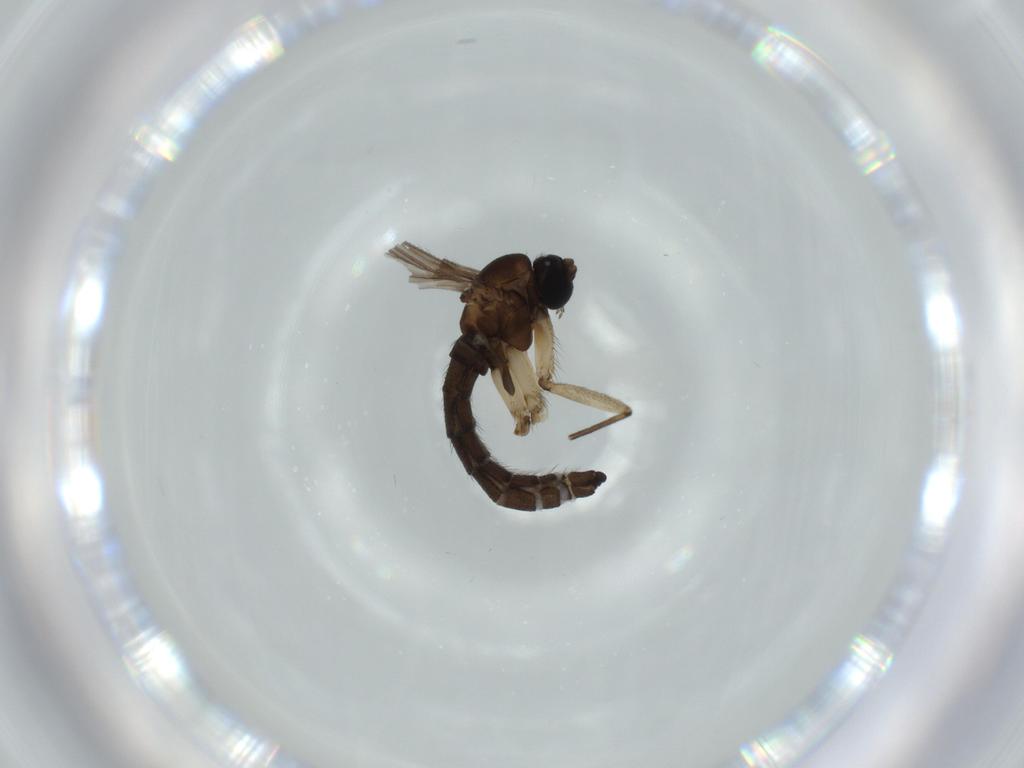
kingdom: Animalia
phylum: Arthropoda
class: Insecta
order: Diptera
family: Sciaridae
